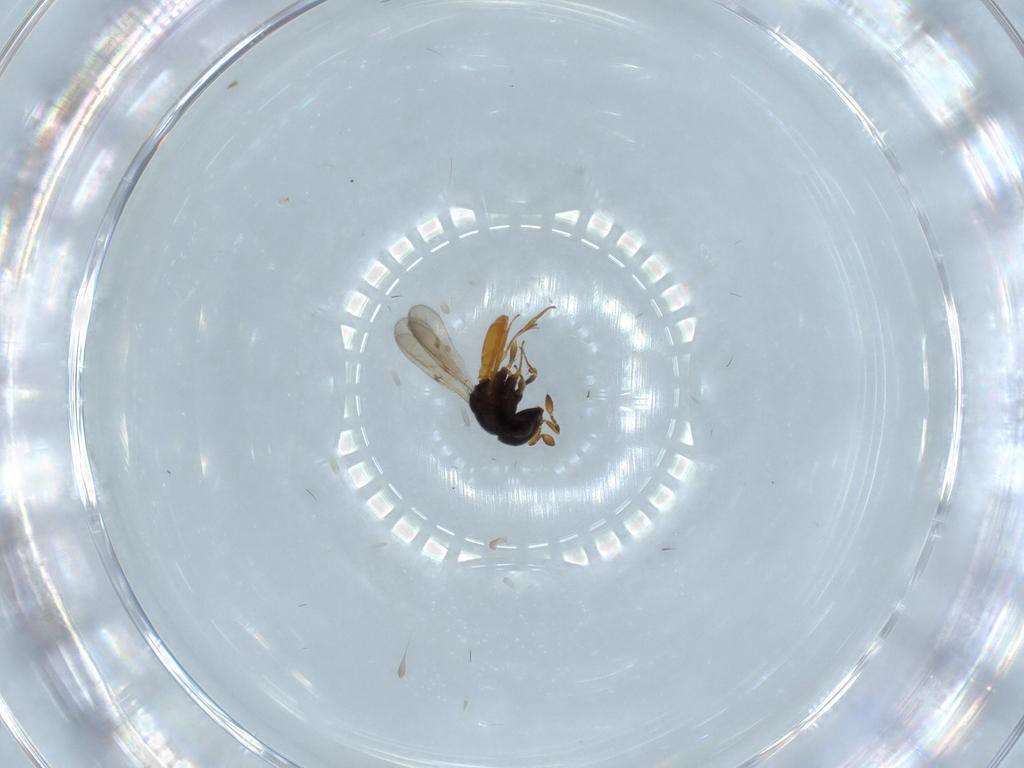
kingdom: Animalia
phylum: Arthropoda
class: Insecta
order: Hymenoptera
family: Scelionidae
